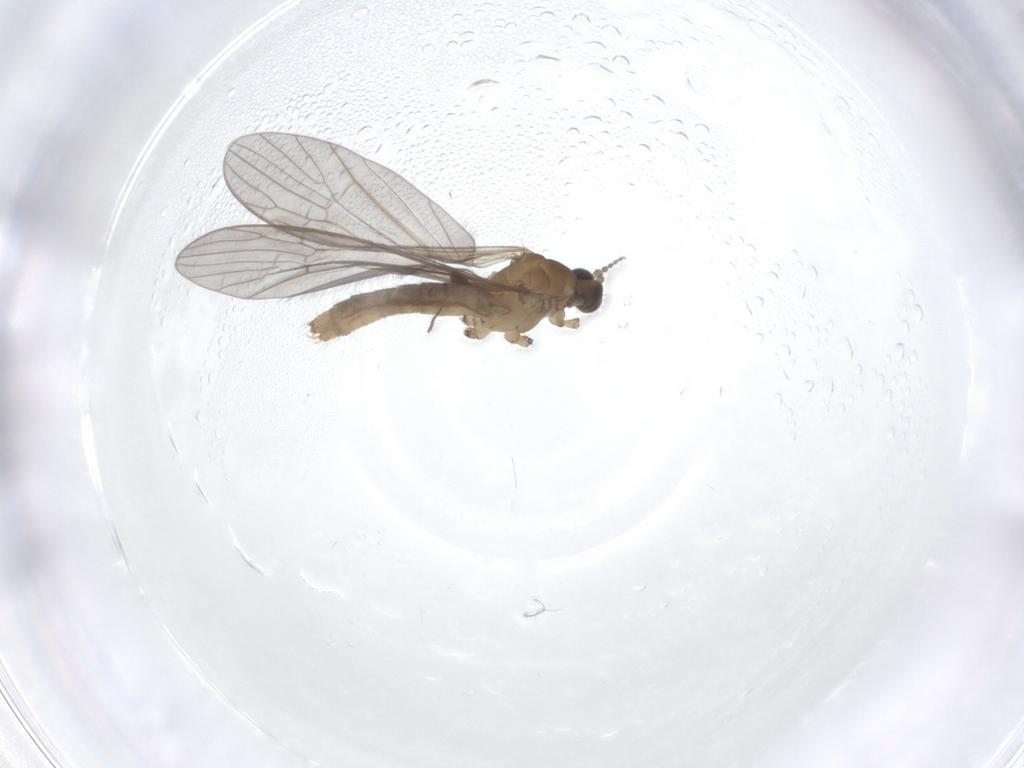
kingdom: Animalia
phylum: Arthropoda
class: Insecta
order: Diptera
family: Limoniidae
